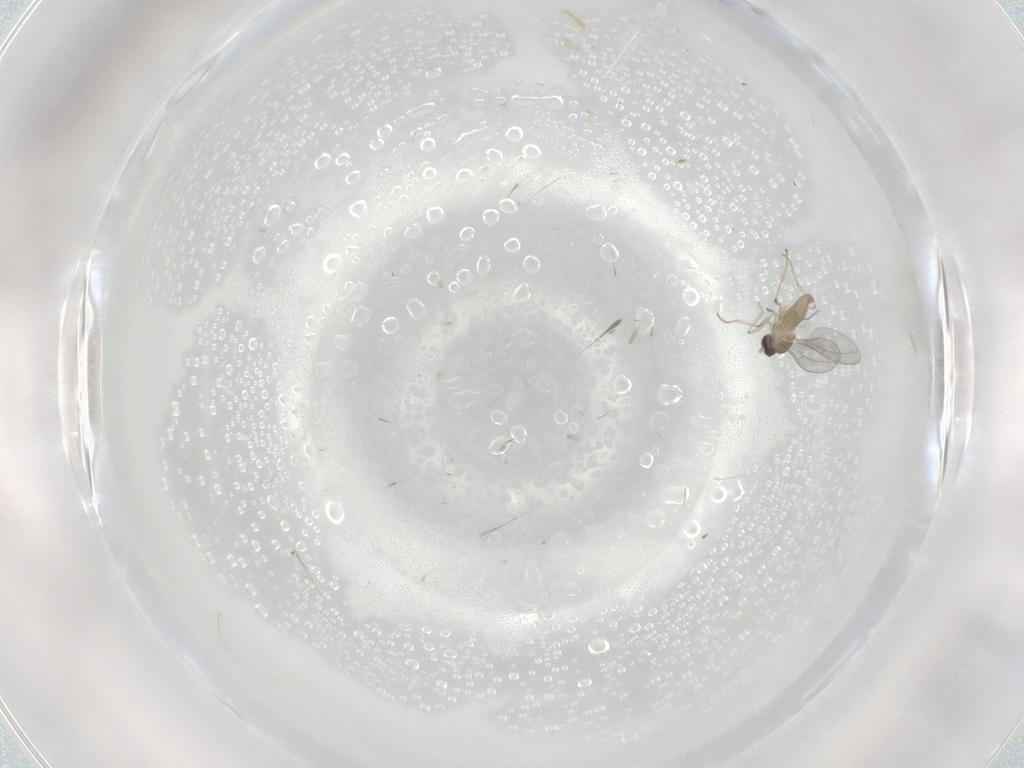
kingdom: Animalia
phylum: Arthropoda
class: Insecta
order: Diptera
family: Cecidomyiidae
